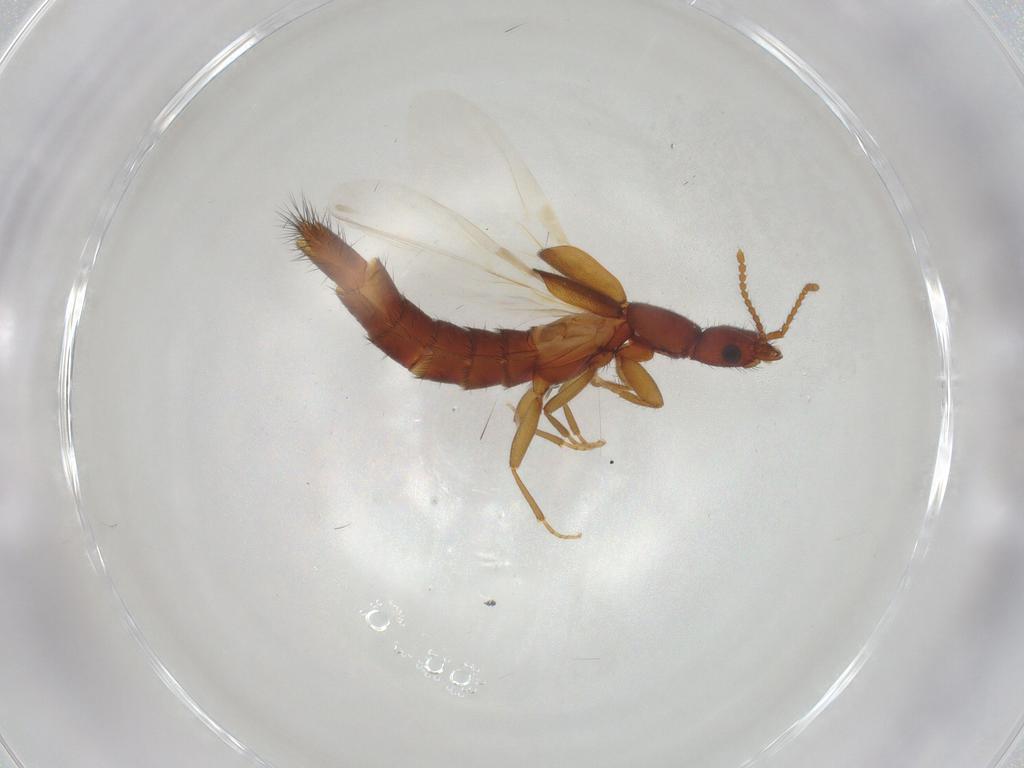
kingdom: Animalia
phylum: Arthropoda
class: Insecta
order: Coleoptera
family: Staphylinidae
